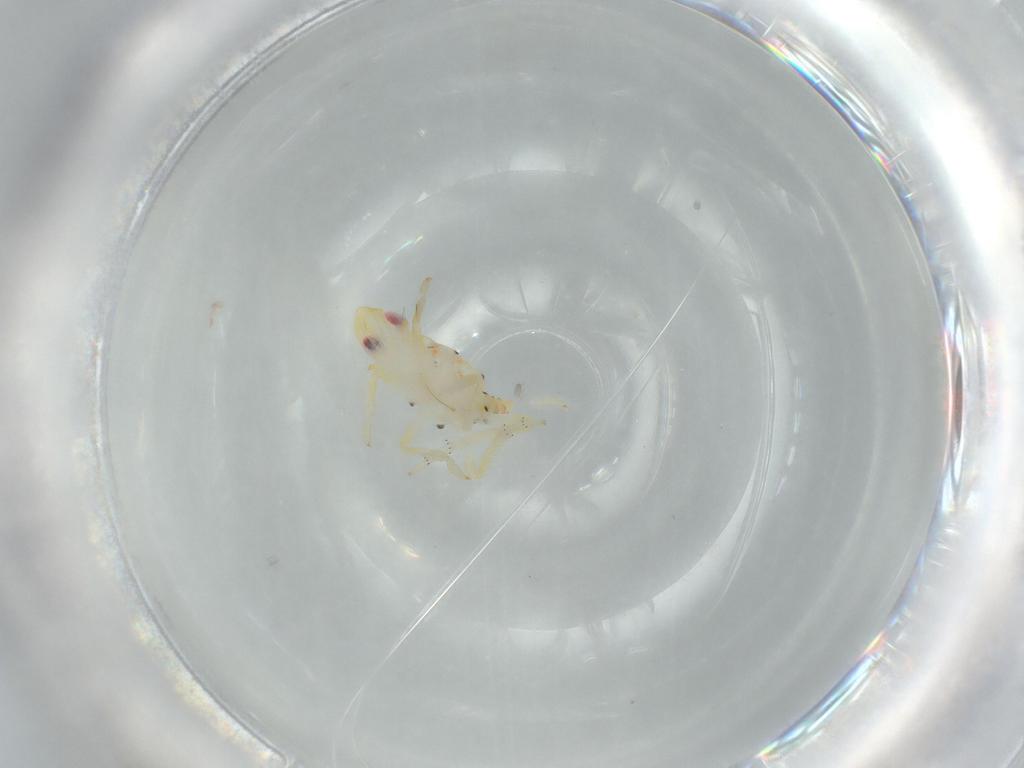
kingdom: Animalia
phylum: Arthropoda
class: Insecta
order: Hemiptera
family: Tropiduchidae
